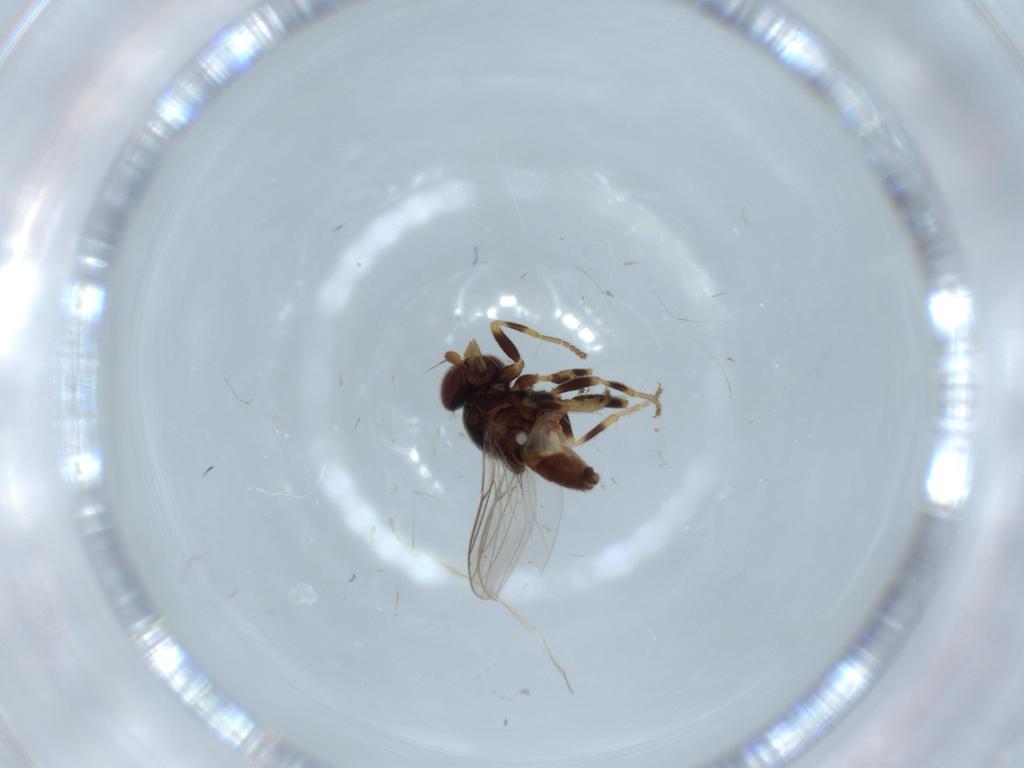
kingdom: Animalia
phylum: Arthropoda
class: Insecta
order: Diptera
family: Chloropidae
